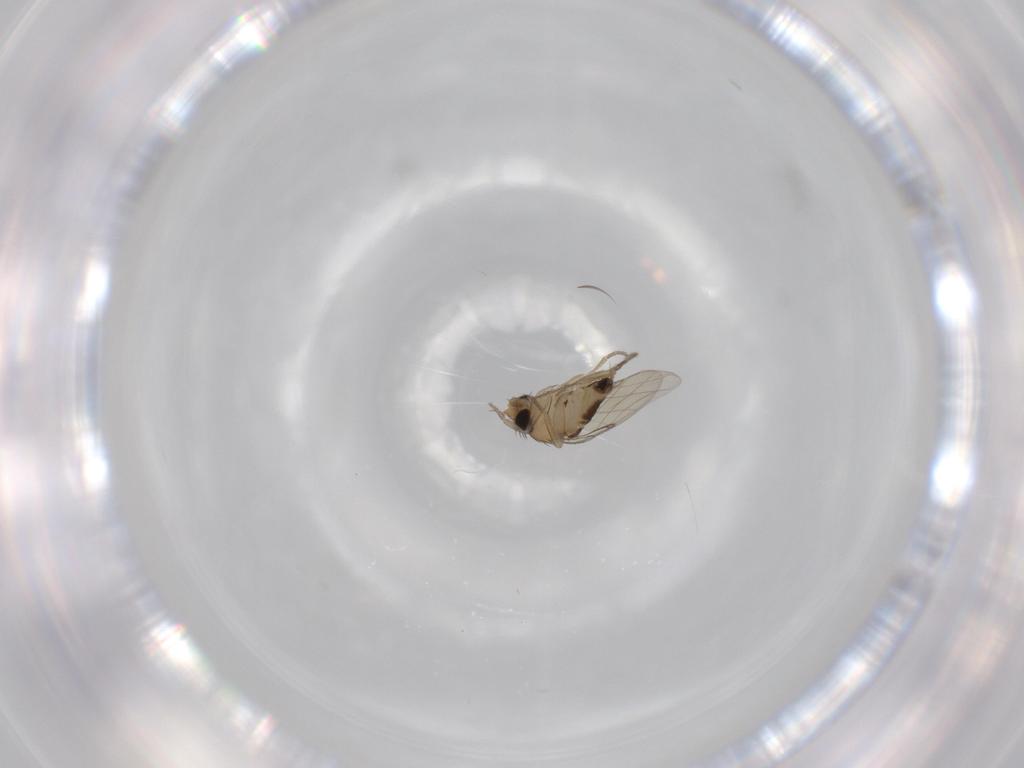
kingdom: Animalia
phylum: Arthropoda
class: Insecta
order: Diptera
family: Phoridae
